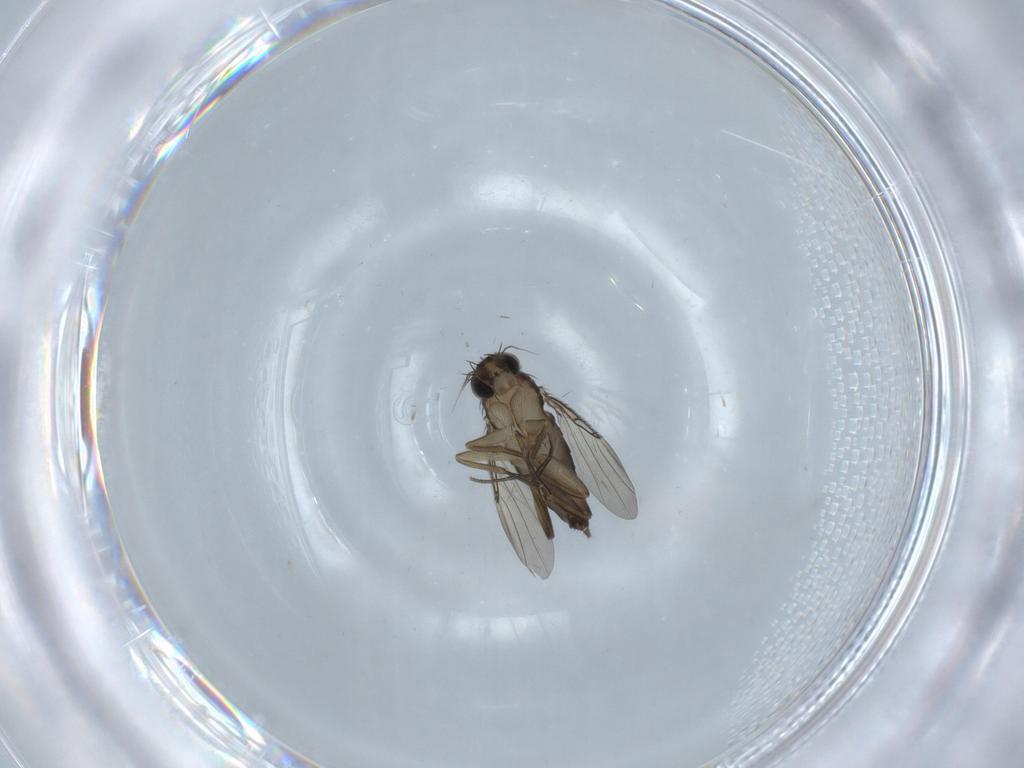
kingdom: Animalia
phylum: Arthropoda
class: Insecta
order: Diptera
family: Phoridae
